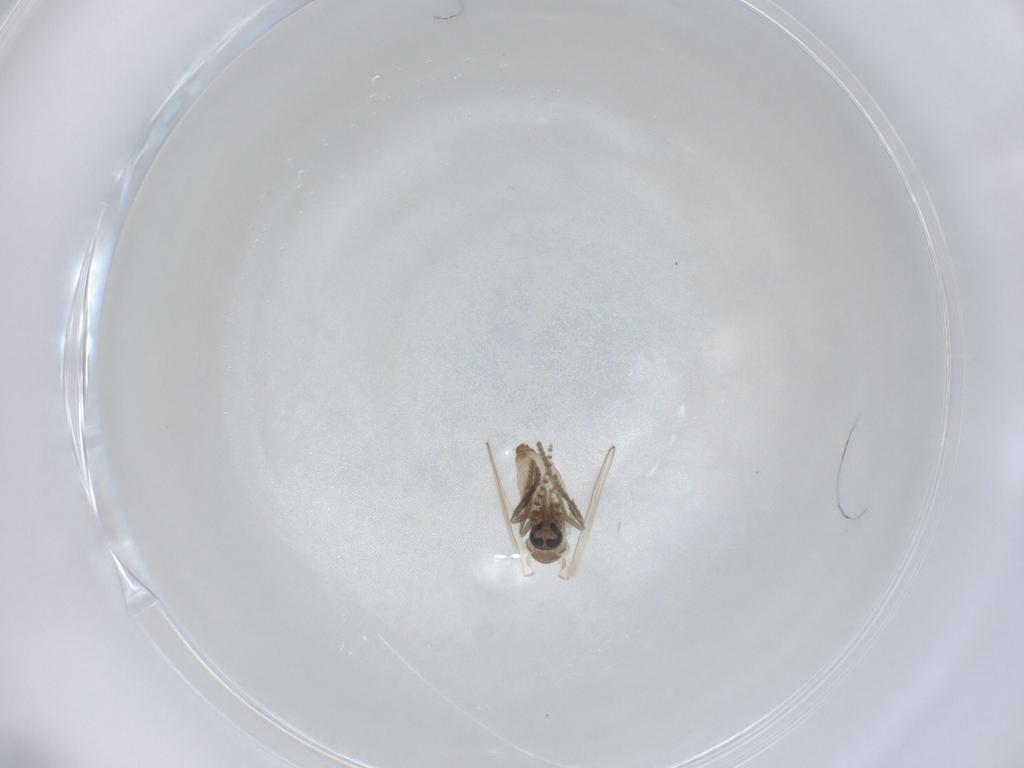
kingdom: Animalia
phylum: Arthropoda
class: Insecta
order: Diptera
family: Psychodidae
